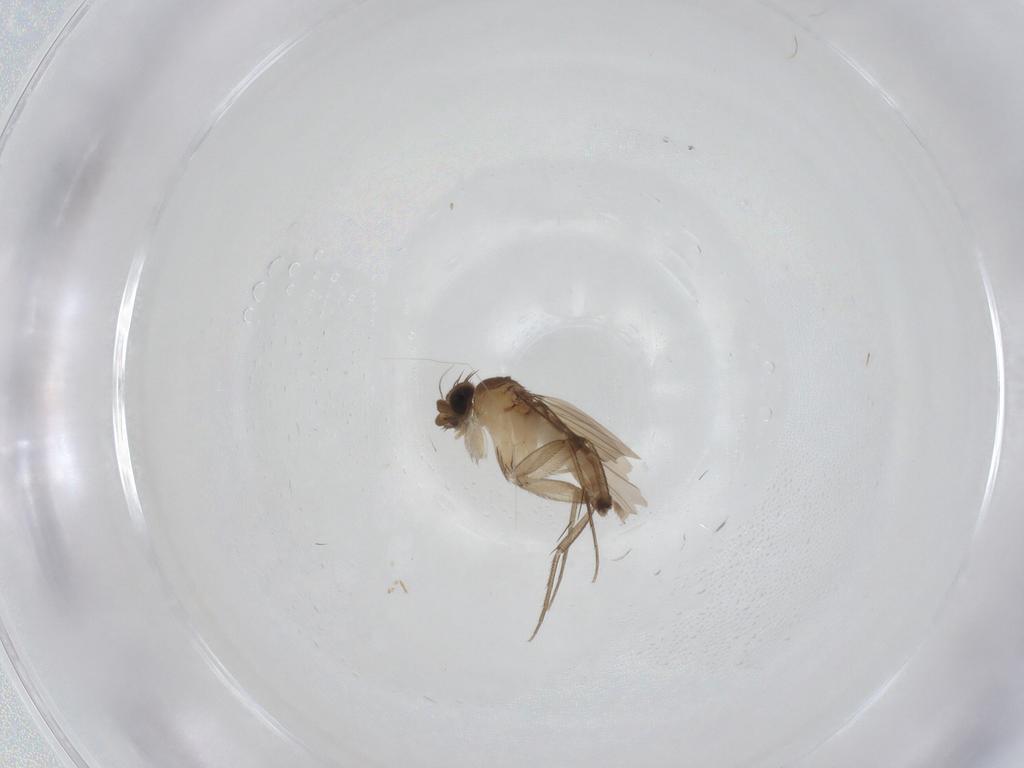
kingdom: Animalia
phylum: Arthropoda
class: Insecta
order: Diptera
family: Phoridae
